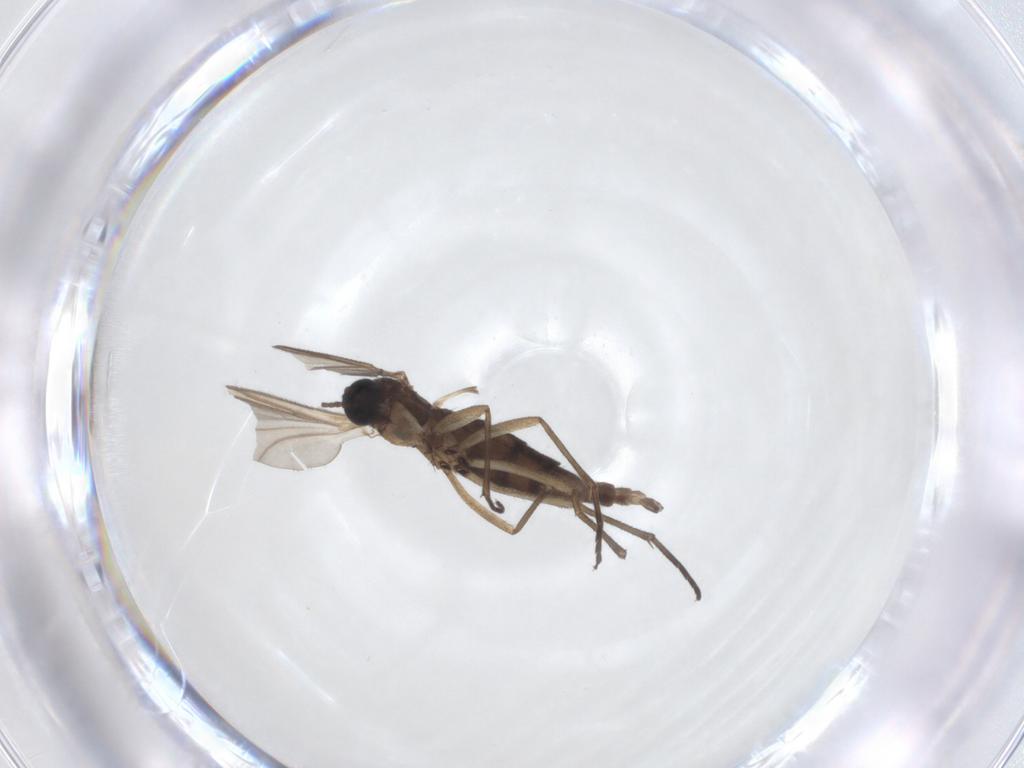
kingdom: Animalia
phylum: Arthropoda
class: Insecta
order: Diptera
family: Sciaridae
